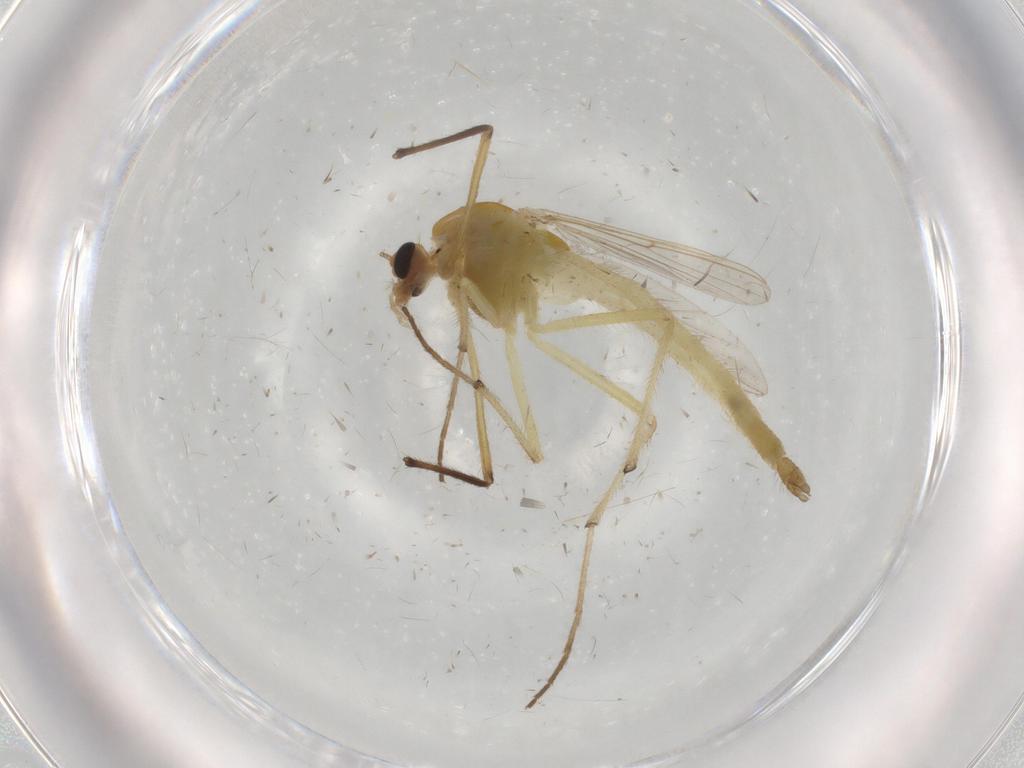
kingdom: Animalia
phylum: Arthropoda
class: Insecta
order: Diptera
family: Chironomidae
